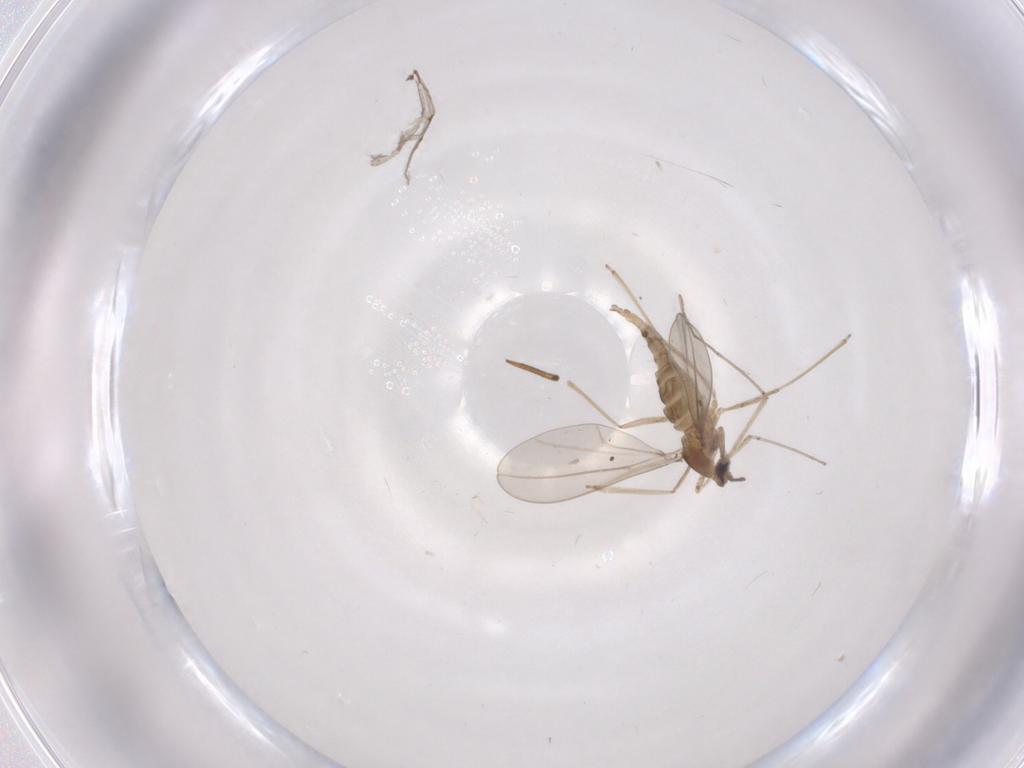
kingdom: Animalia
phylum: Arthropoda
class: Insecta
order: Diptera
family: Cecidomyiidae
